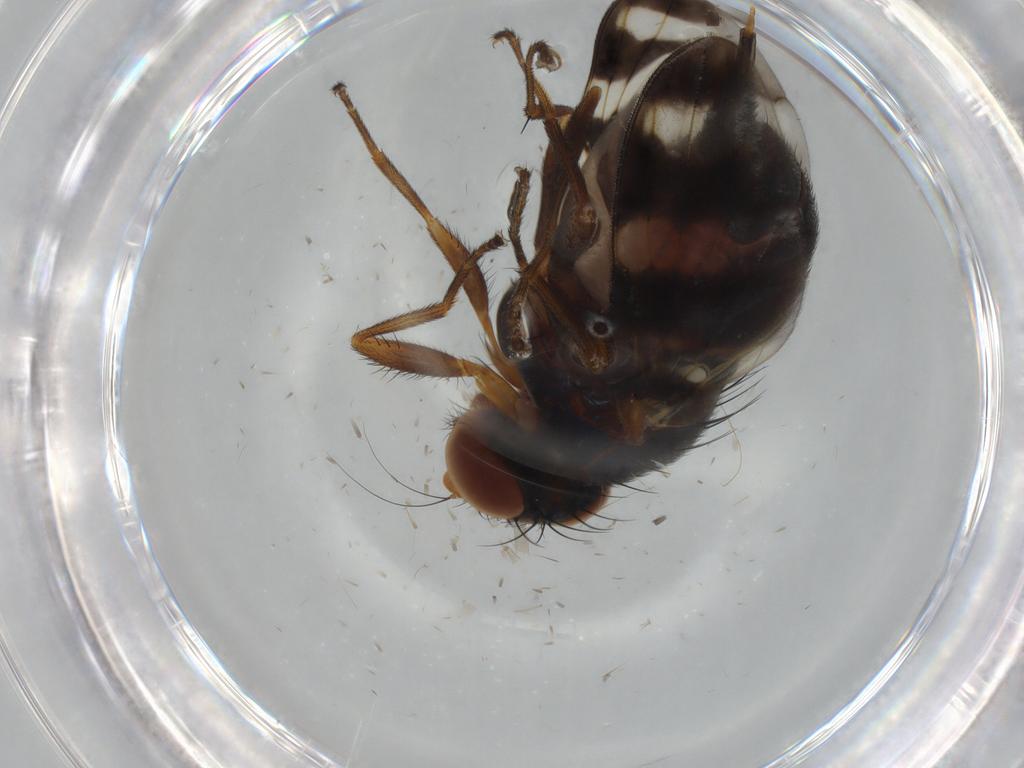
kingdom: Animalia
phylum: Arthropoda
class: Insecta
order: Diptera
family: Ulidiidae
